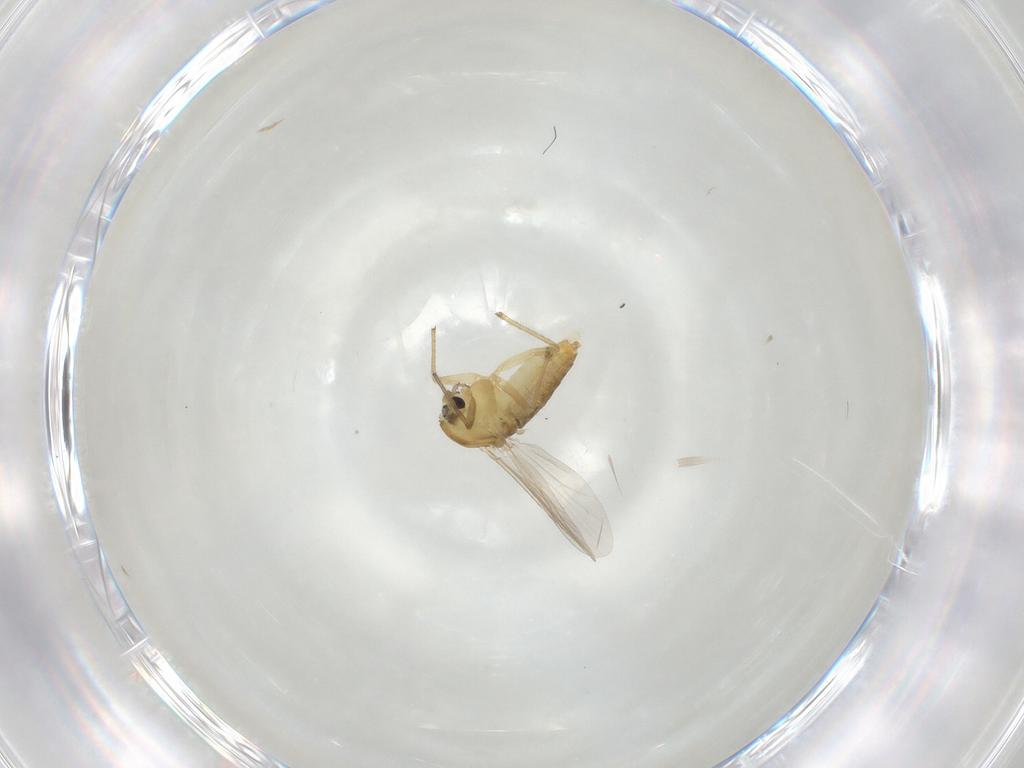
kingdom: Animalia
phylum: Arthropoda
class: Insecta
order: Diptera
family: Chironomidae
